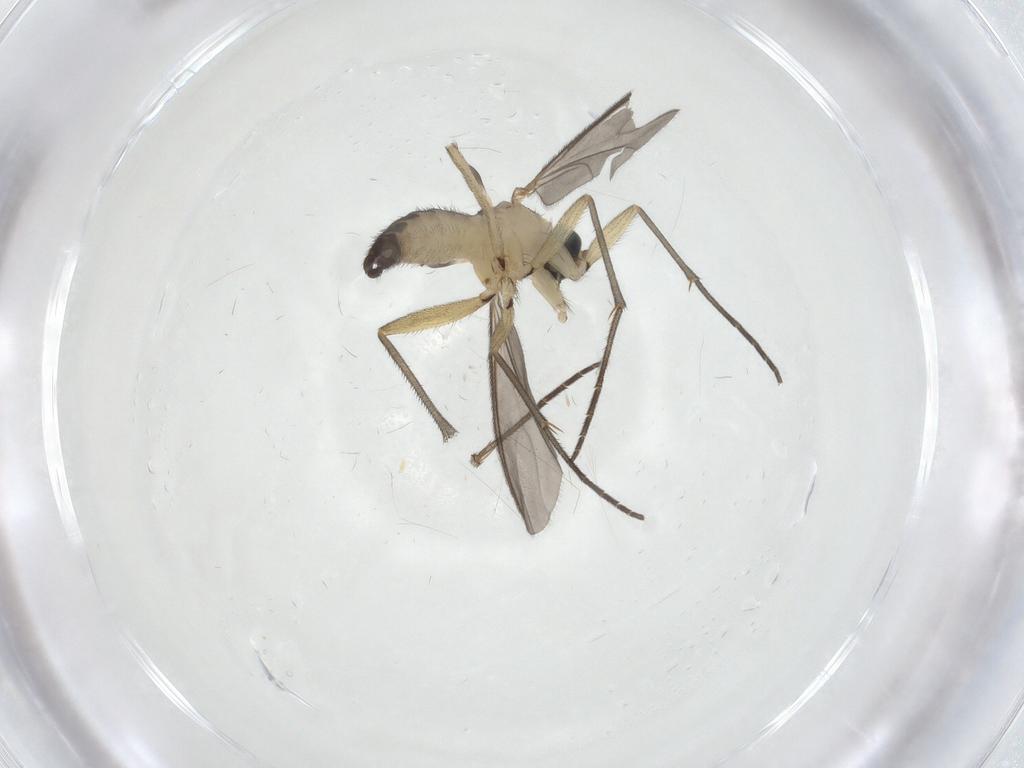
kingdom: Animalia
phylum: Arthropoda
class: Insecta
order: Diptera
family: Sciaridae
